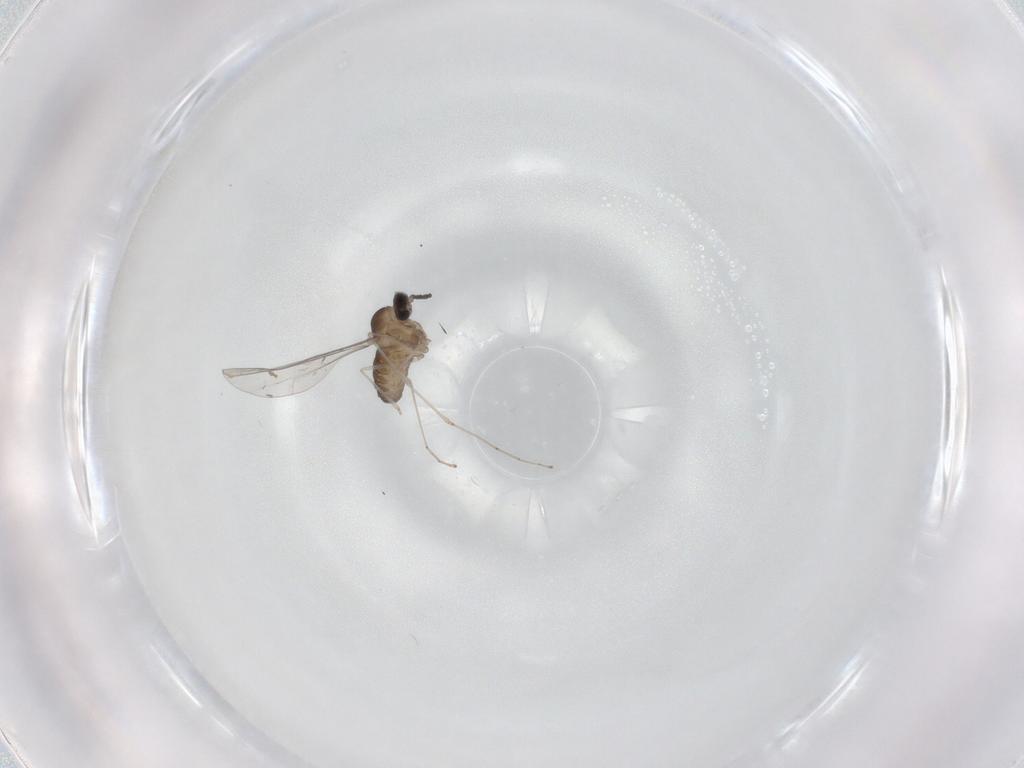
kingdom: Animalia
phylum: Arthropoda
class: Insecta
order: Diptera
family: Cecidomyiidae
